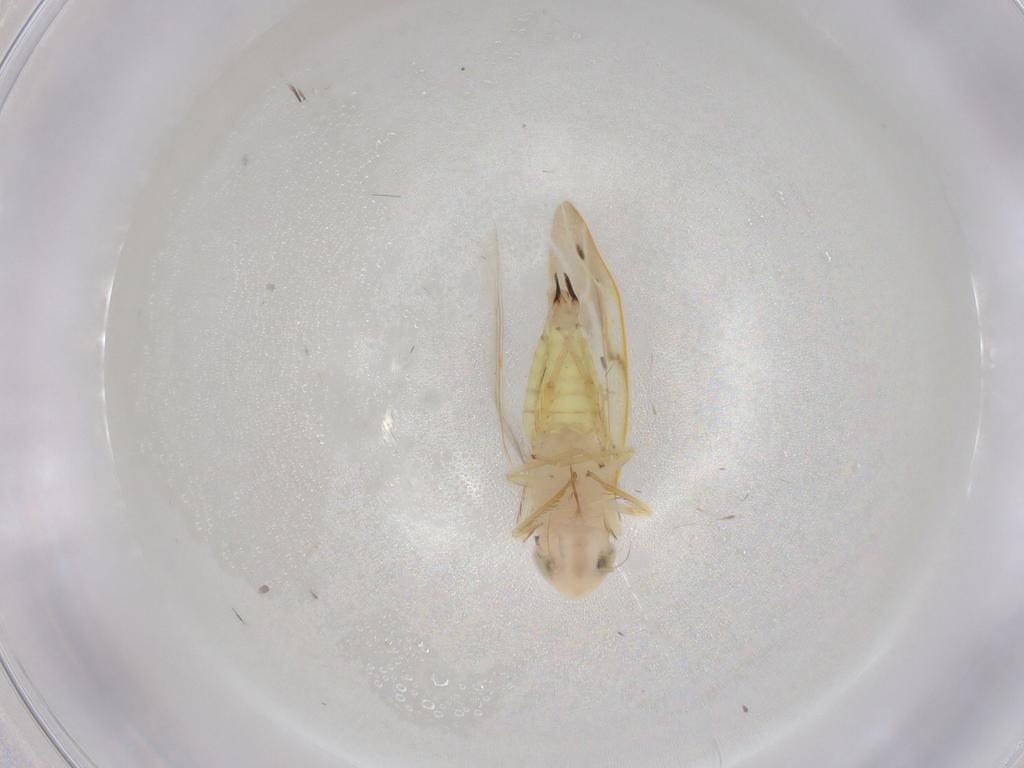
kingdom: Animalia
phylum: Arthropoda
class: Insecta
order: Hemiptera
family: Cicadellidae
